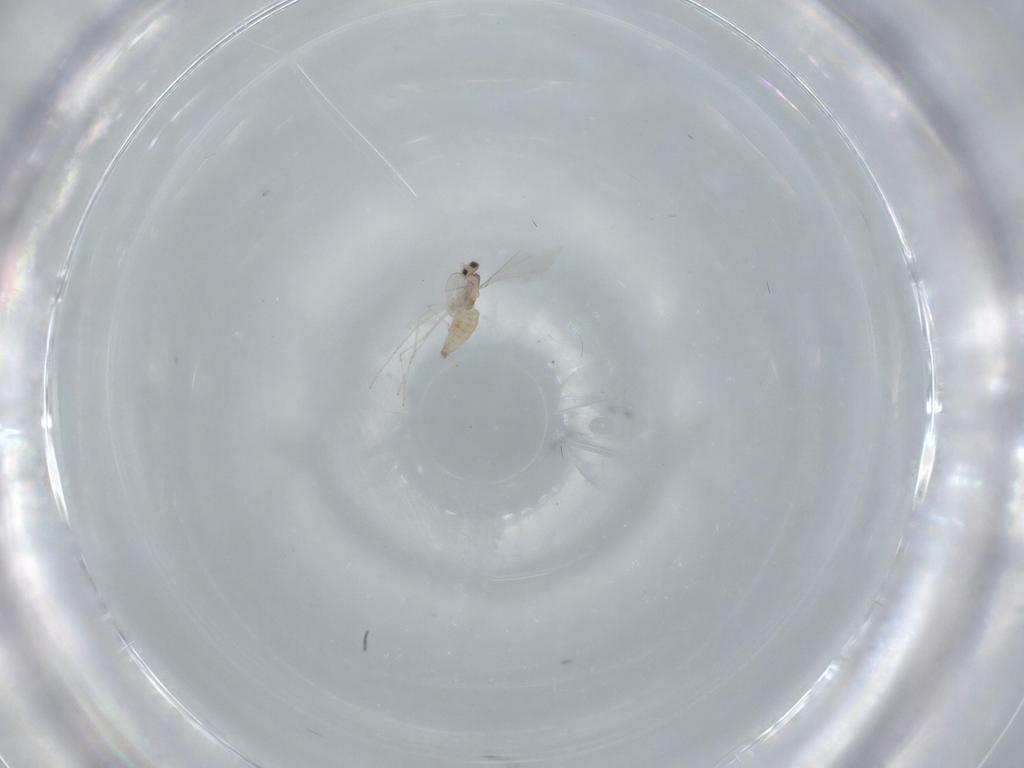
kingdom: Animalia
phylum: Arthropoda
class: Insecta
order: Diptera
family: Cecidomyiidae
